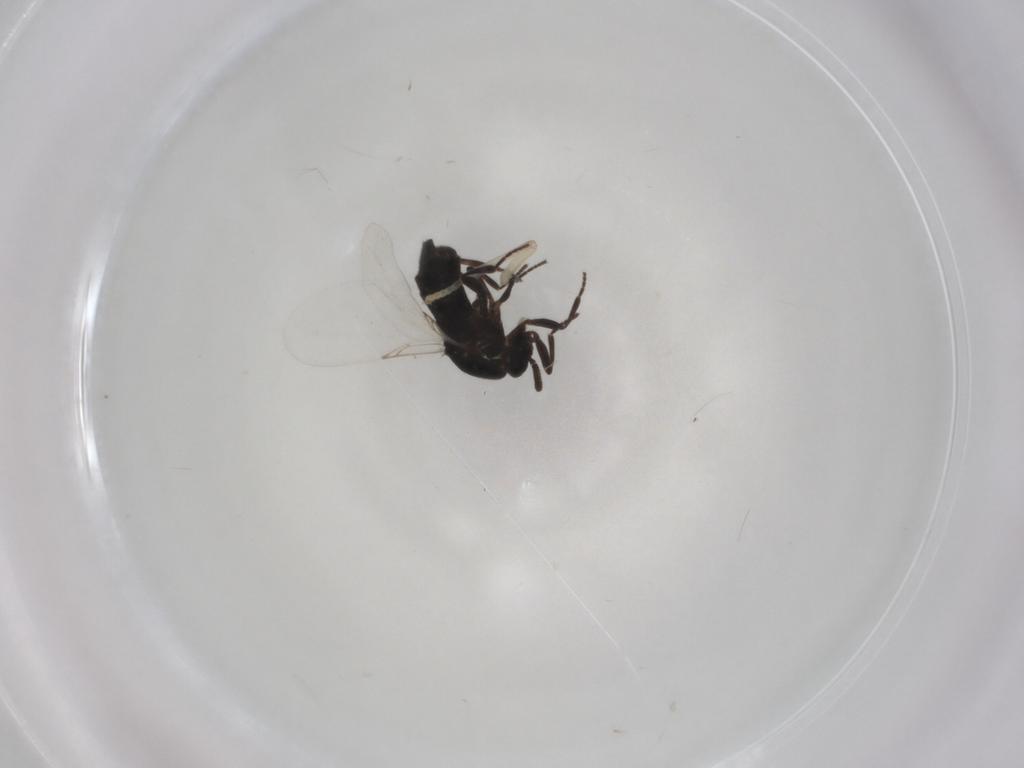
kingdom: Animalia
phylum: Arthropoda
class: Insecta
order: Diptera
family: Scatopsidae
